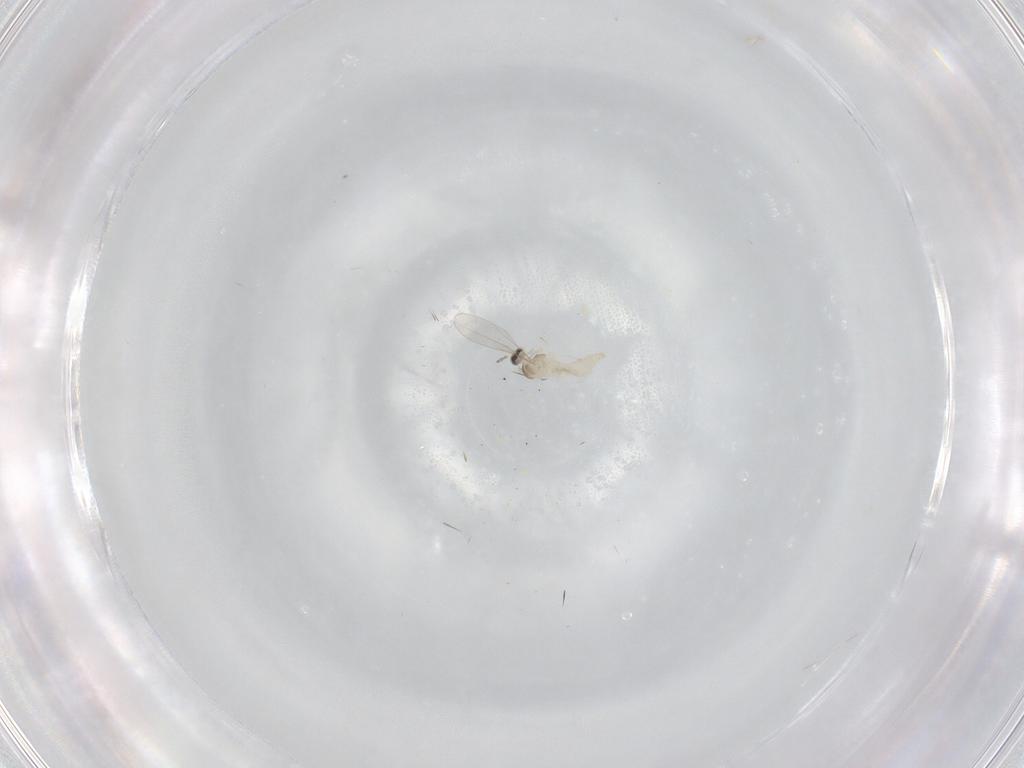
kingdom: Animalia
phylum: Arthropoda
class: Insecta
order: Diptera
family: Cecidomyiidae
